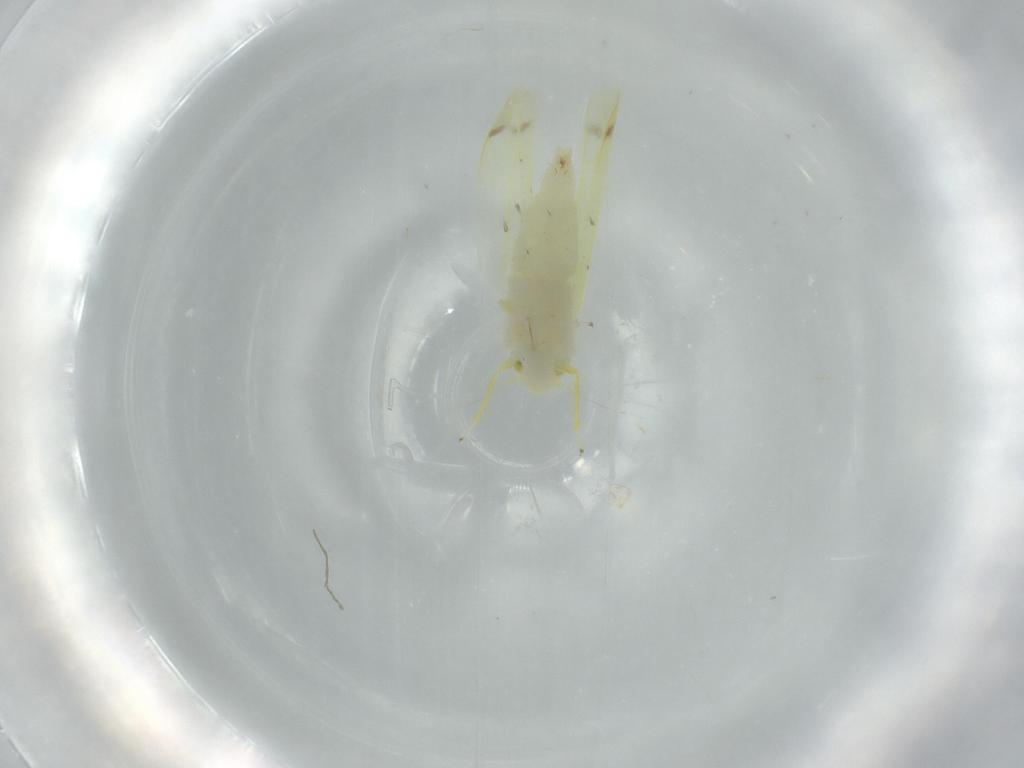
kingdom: Animalia
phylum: Arthropoda
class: Insecta
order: Hemiptera
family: Cicadellidae
